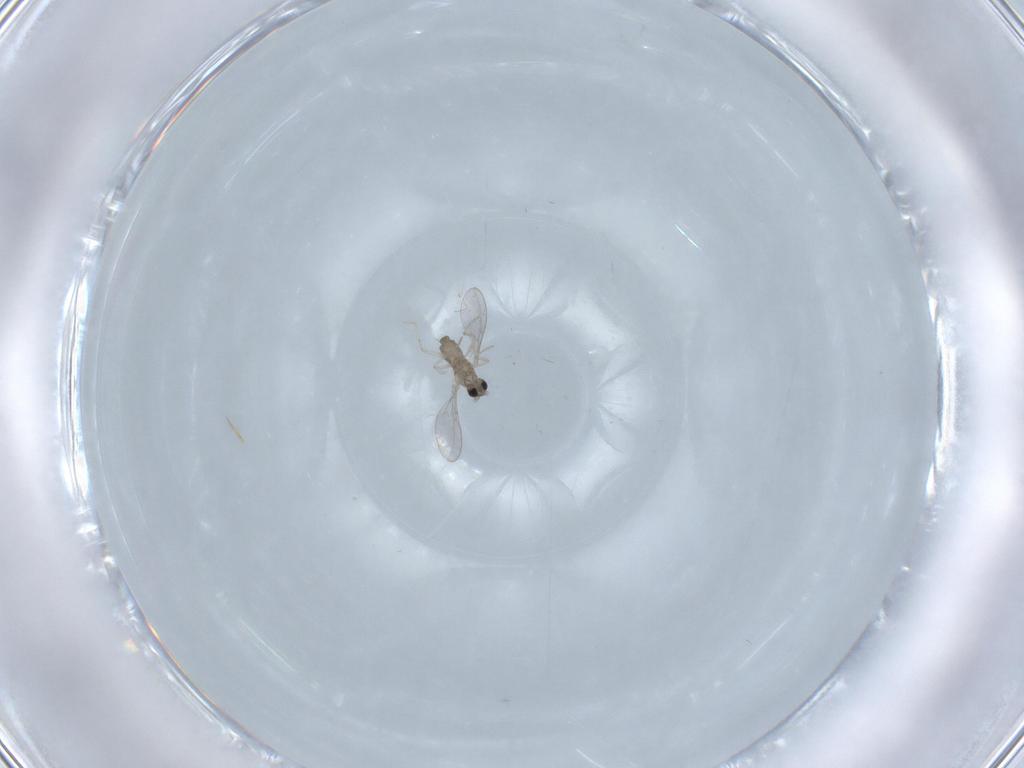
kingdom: Animalia
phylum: Arthropoda
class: Insecta
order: Diptera
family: Cecidomyiidae
